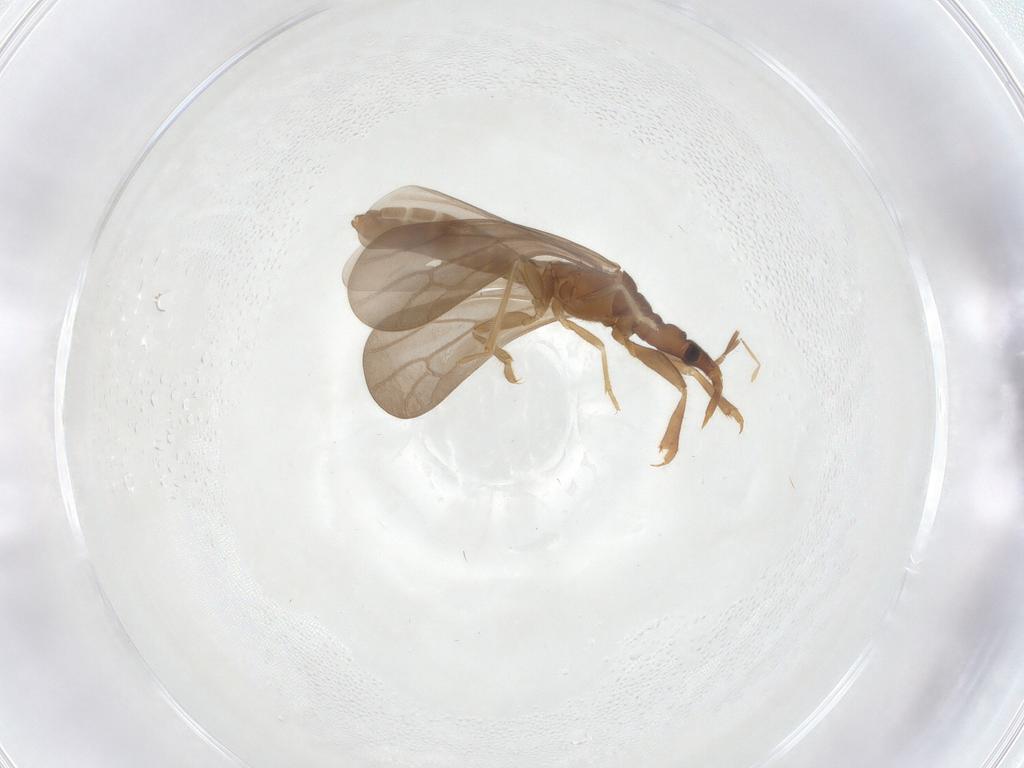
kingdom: Animalia
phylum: Arthropoda
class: Insecta
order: Hemiptera
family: Enicocephalidae
